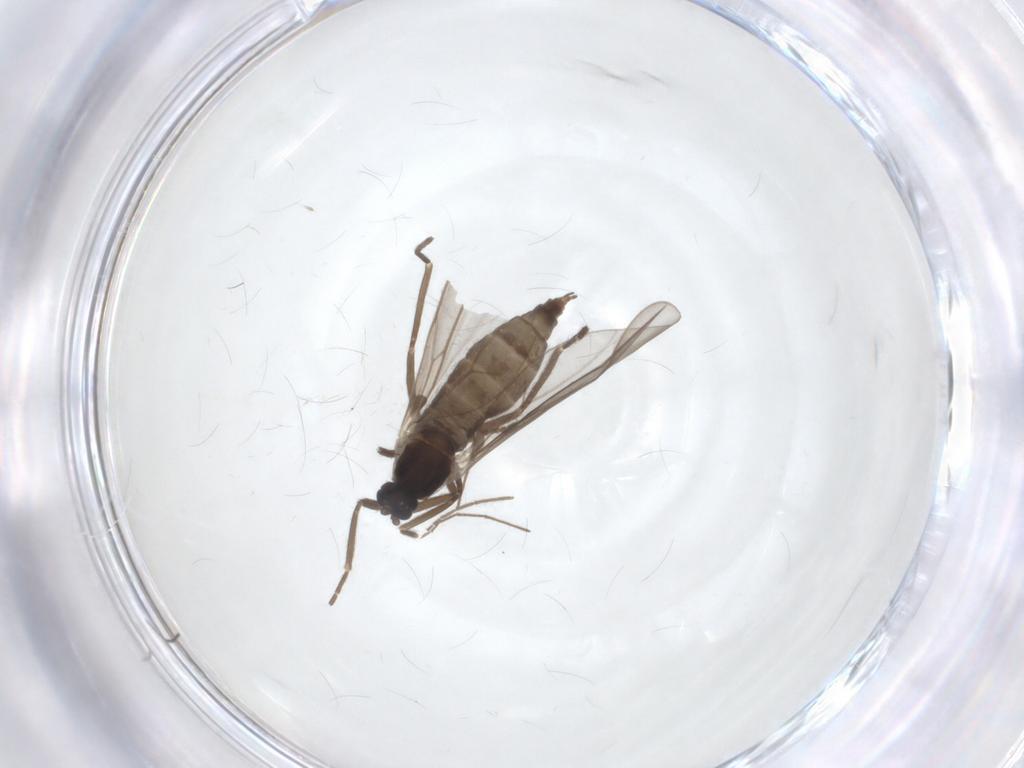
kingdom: Animalia
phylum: Arthropoda
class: Insecta
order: Diptera
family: Cecidomyiidae
